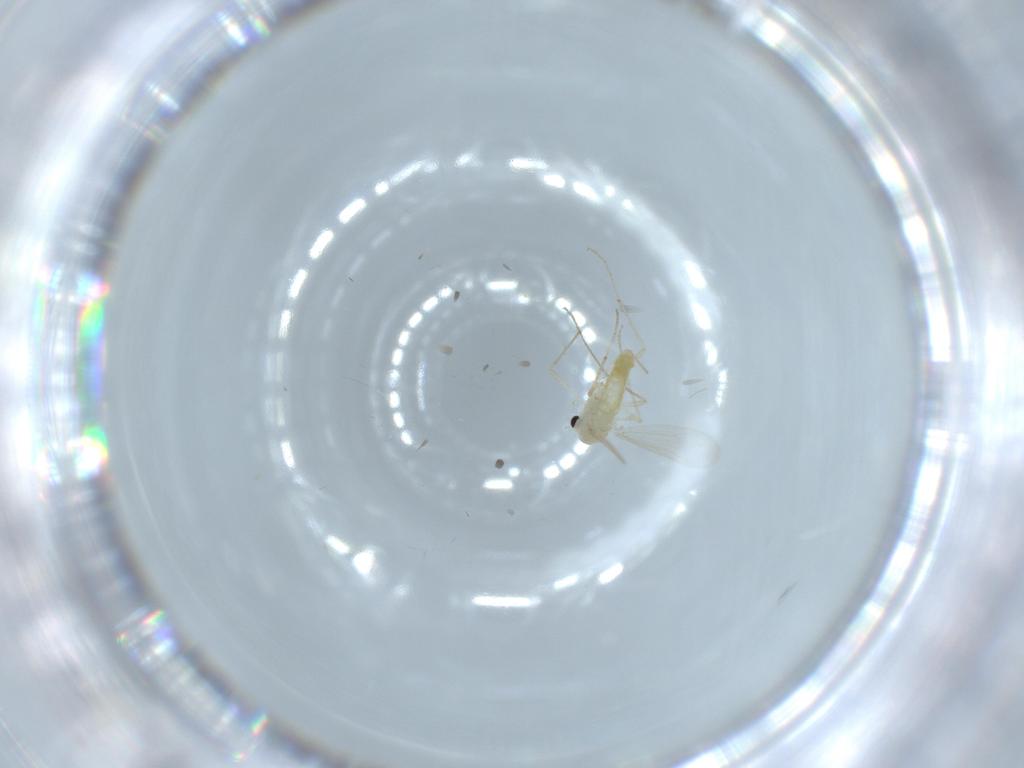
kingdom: Animalia
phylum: Arthropoda
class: Insecta
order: Diptera
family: Chironomidae
